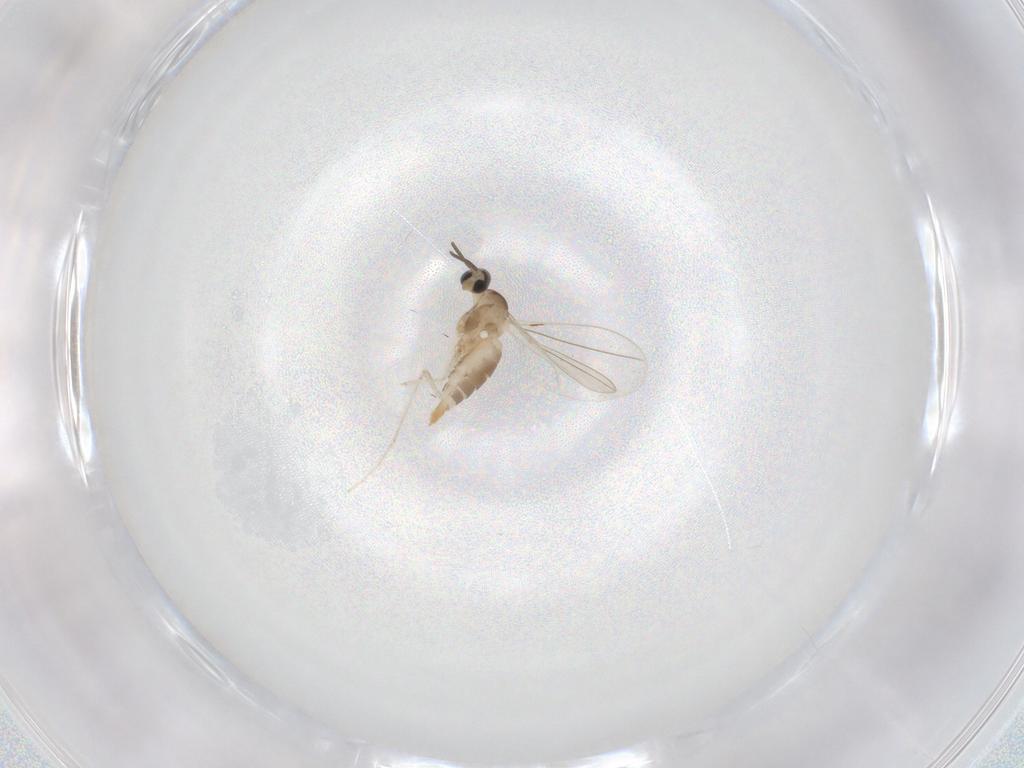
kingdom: Animalia
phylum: Arthropoda
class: Insecta
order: Diptera
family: Cecidomyiidae
